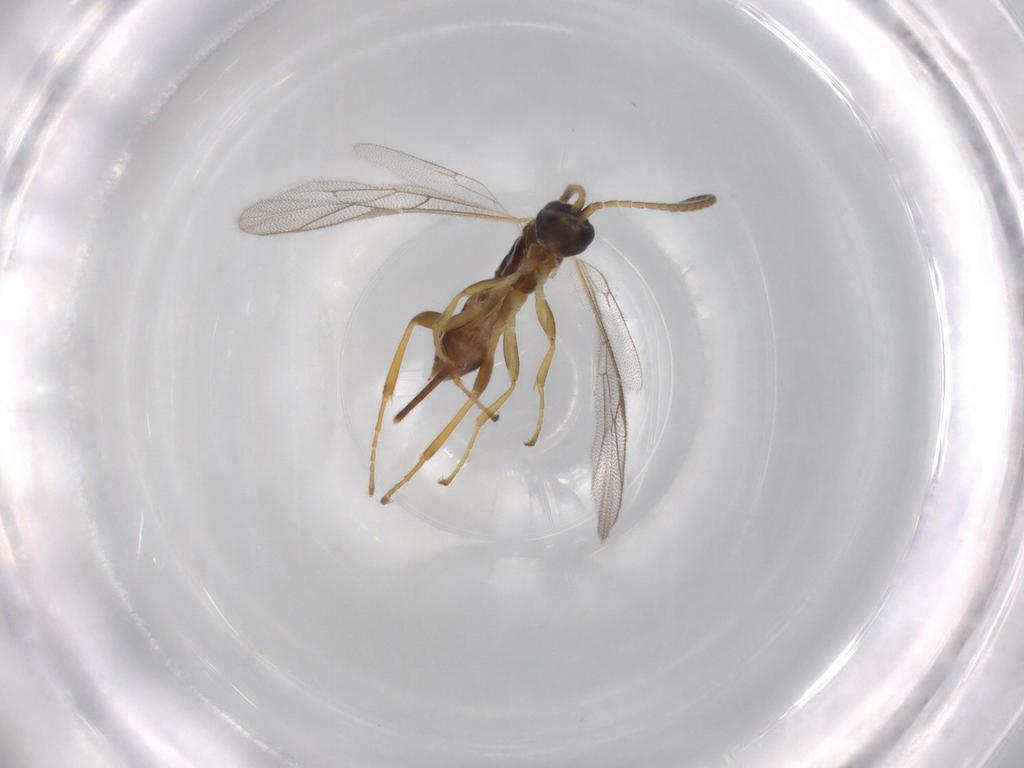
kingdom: Animalia
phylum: Arthropoda
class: Insecta
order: Hymenoptera
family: Ichneumonidae
